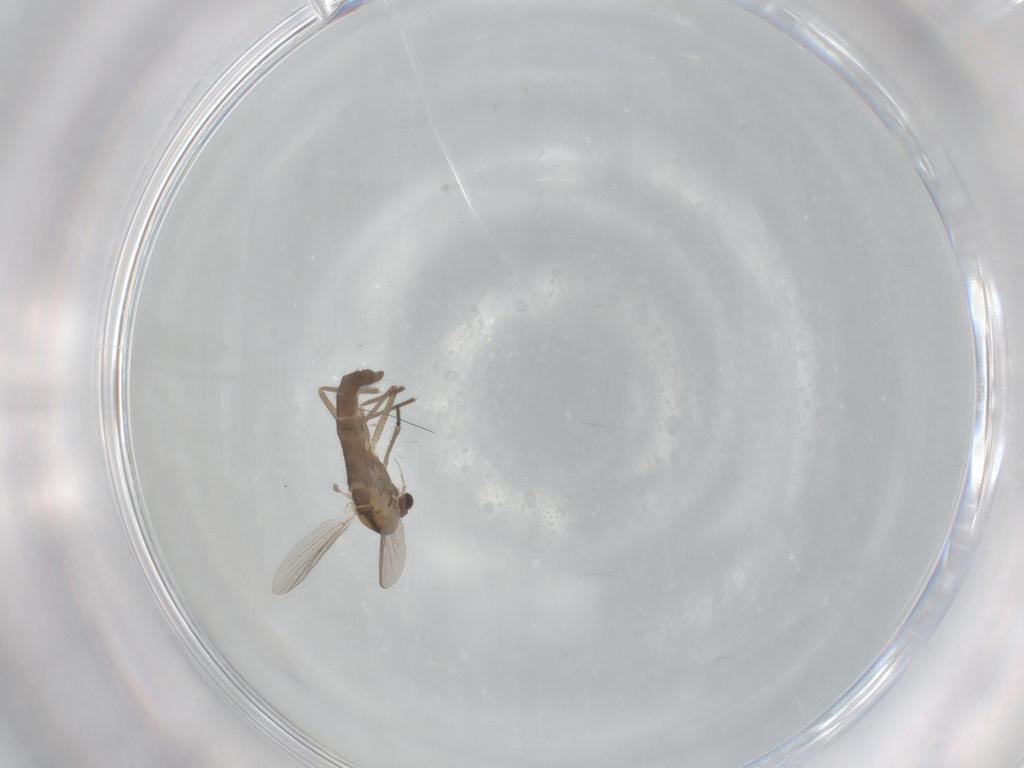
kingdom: Animalia
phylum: Arthropoda
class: Insecta
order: Diptera
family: Chironomidae
